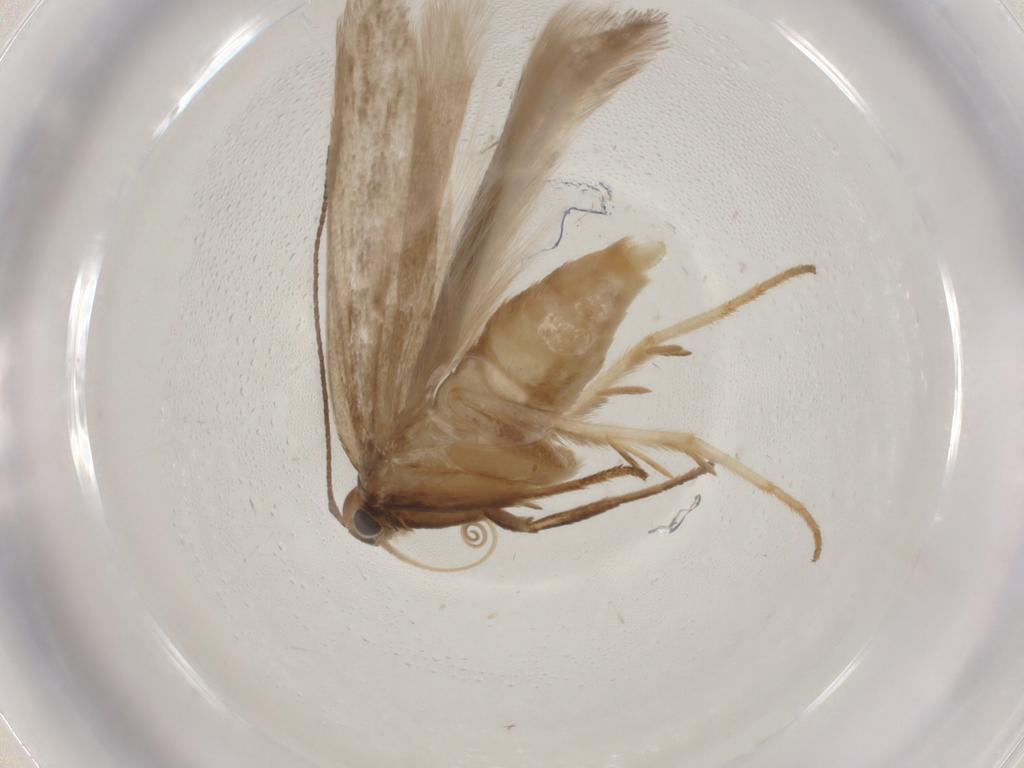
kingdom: Animalia
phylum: Arthropoda
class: Insecta
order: Lepidoptera
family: Gelechiidae
